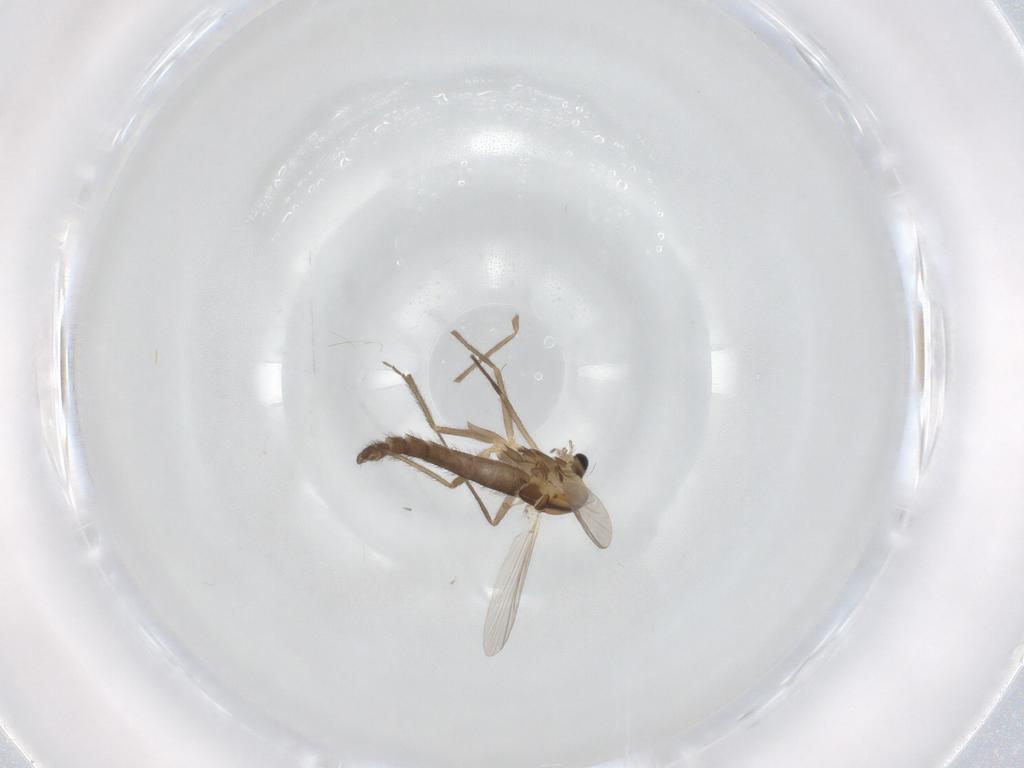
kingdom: Animalia
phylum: Arthropoda
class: Insecta
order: Diptera
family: Chironomidae
